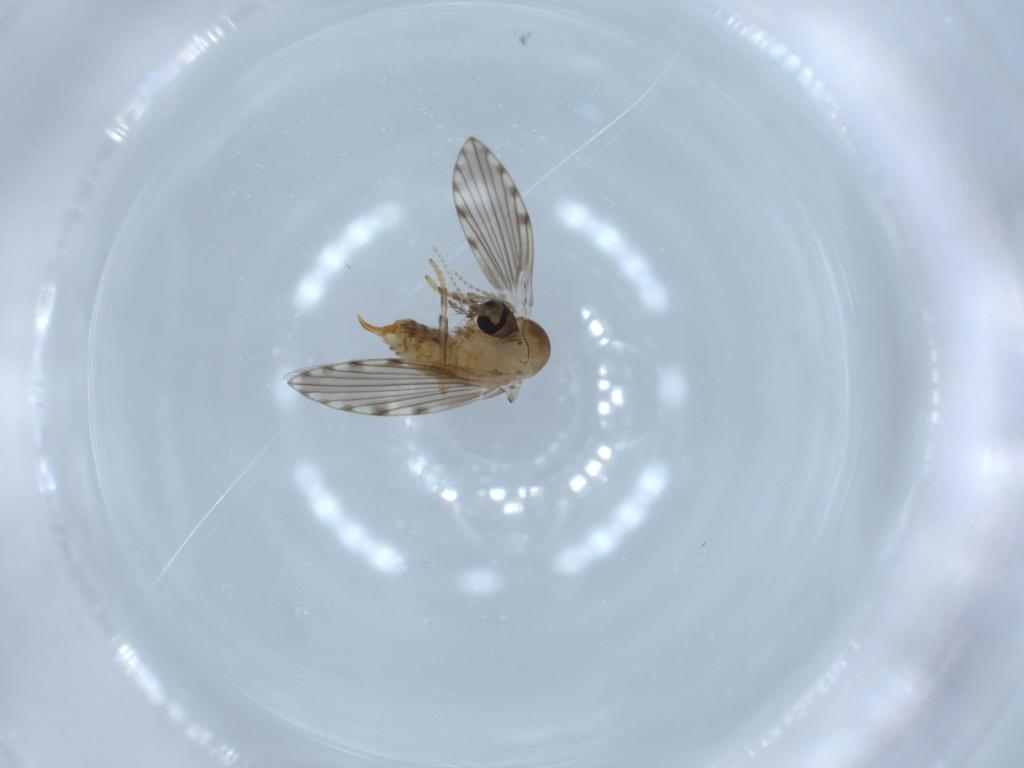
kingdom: Animalia
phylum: Arthropoda
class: Insecta
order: Diptera
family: Psychodidae
